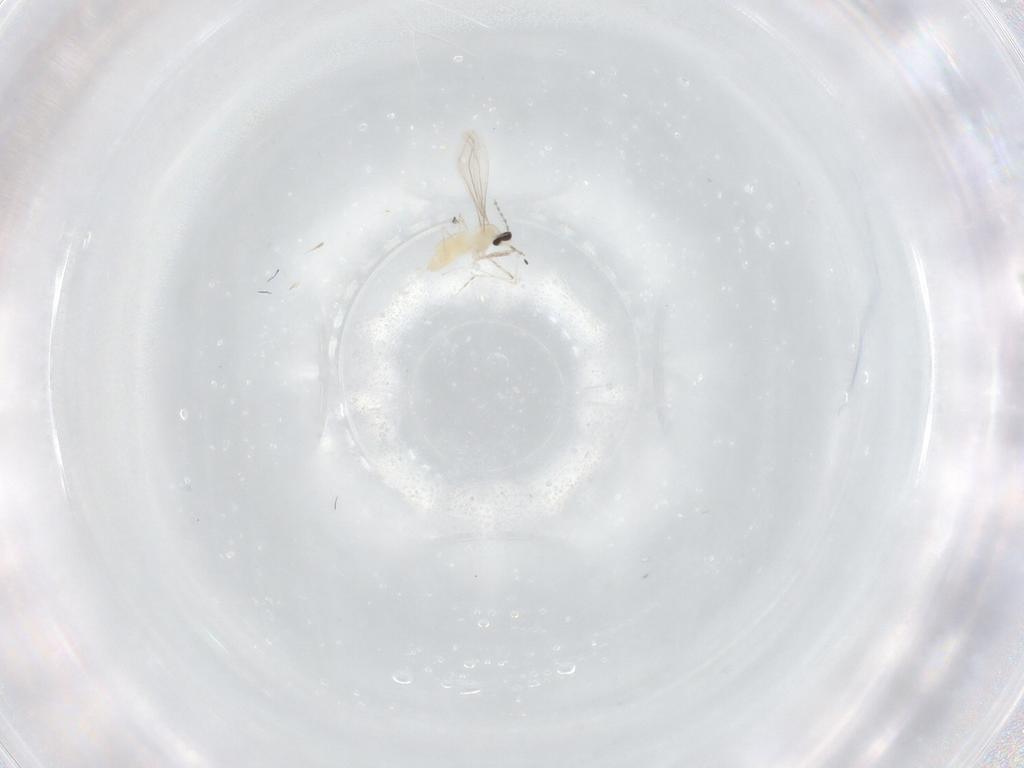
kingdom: Animalia
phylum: Arthropoda
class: Insecta
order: Diptera
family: Cecidomyiidae
